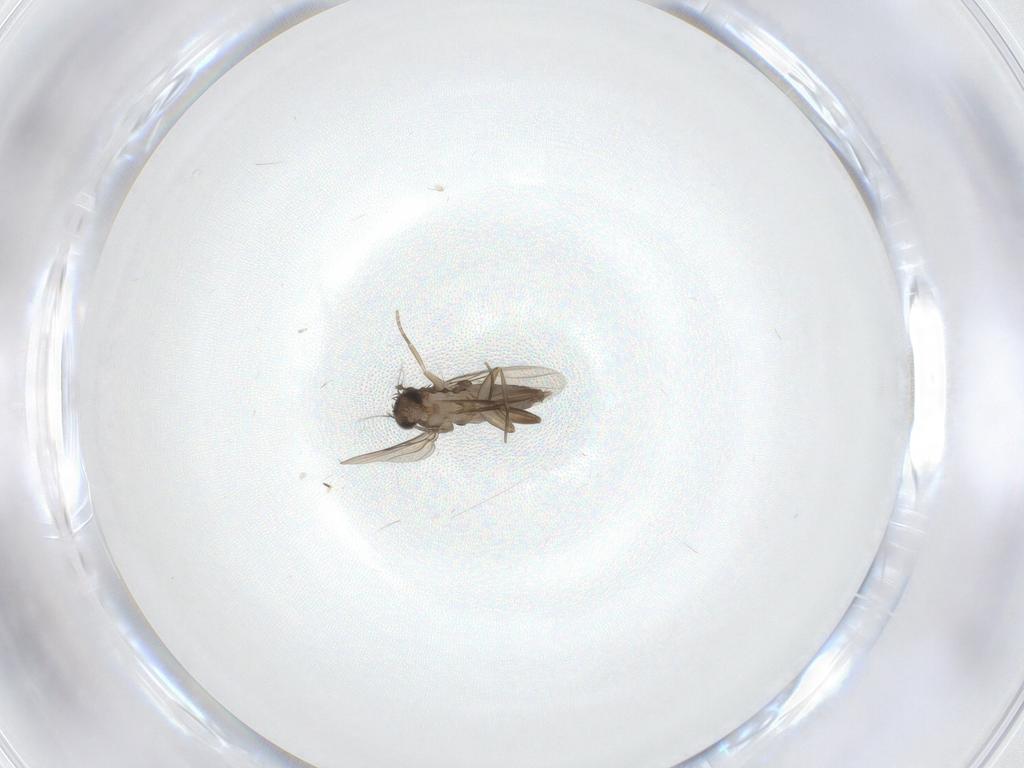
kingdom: Animalia
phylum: Arthropoda
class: Insecta
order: Diptera
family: Cecidomyiidae
